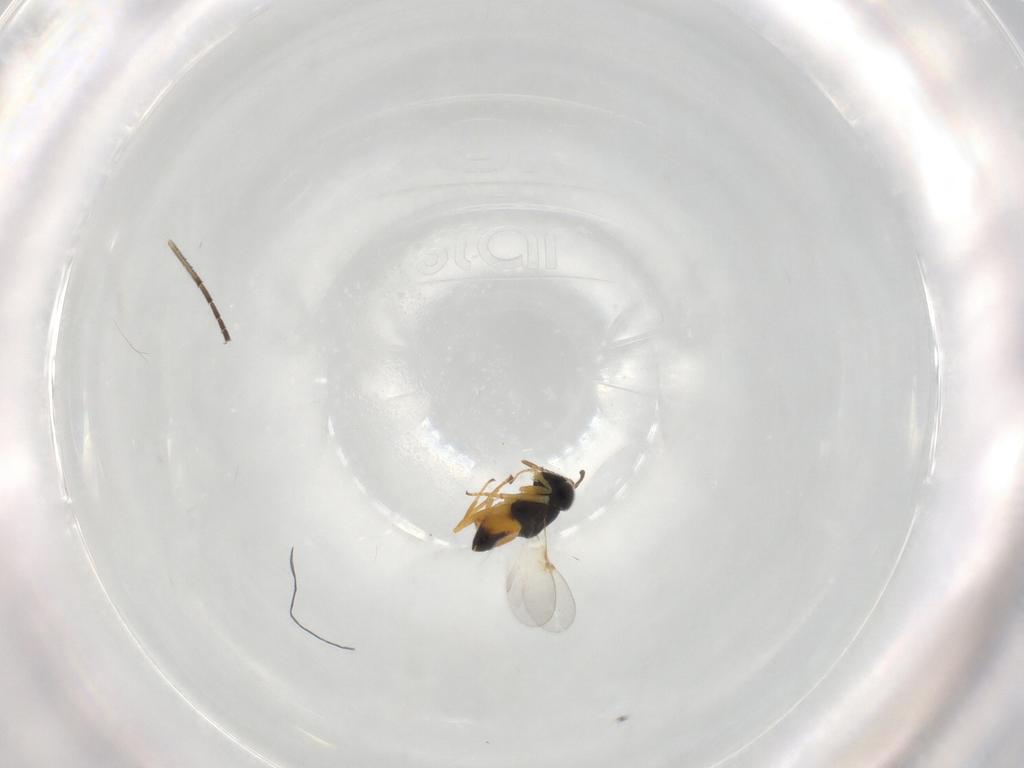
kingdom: Animalia
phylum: Arthropoda
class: Insecta
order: Hymenoptera
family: Encyrtidae
